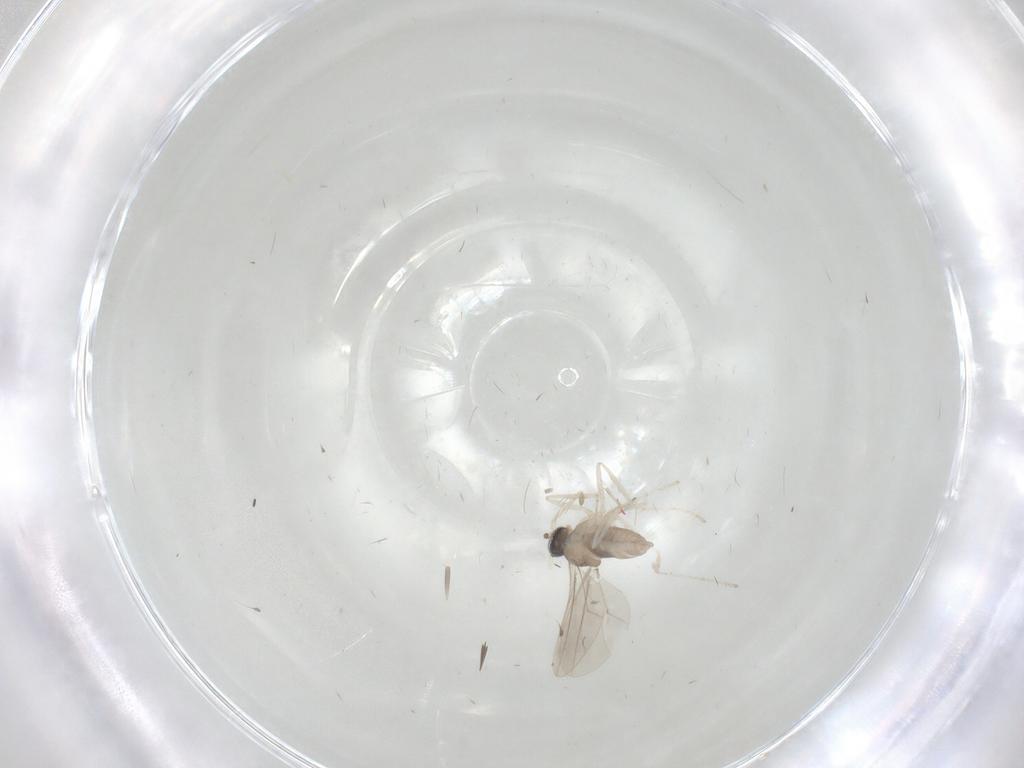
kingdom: Animalia
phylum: Arthropoda
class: Insecta
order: Diptera
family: Cecidomyiidae
